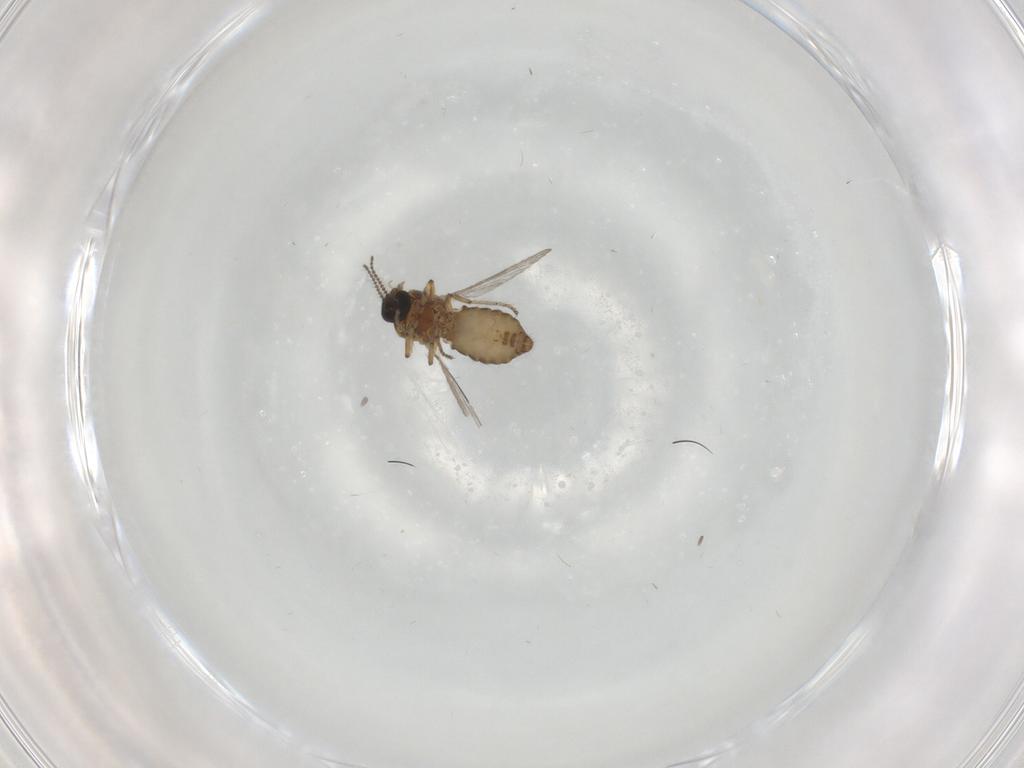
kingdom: Animalia
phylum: Arthropoda
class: Insecta
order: Diptera
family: Ceratopogonidae
